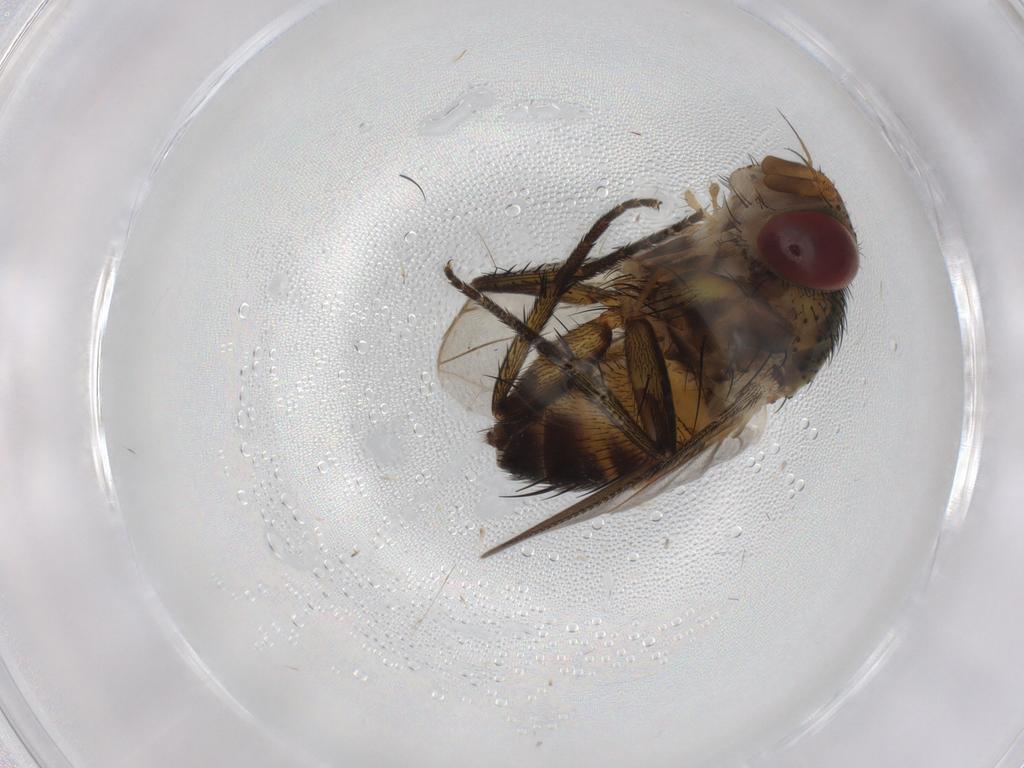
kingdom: Animalia
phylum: Arthropoda
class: Insecta
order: Diptera
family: Tachinidae
